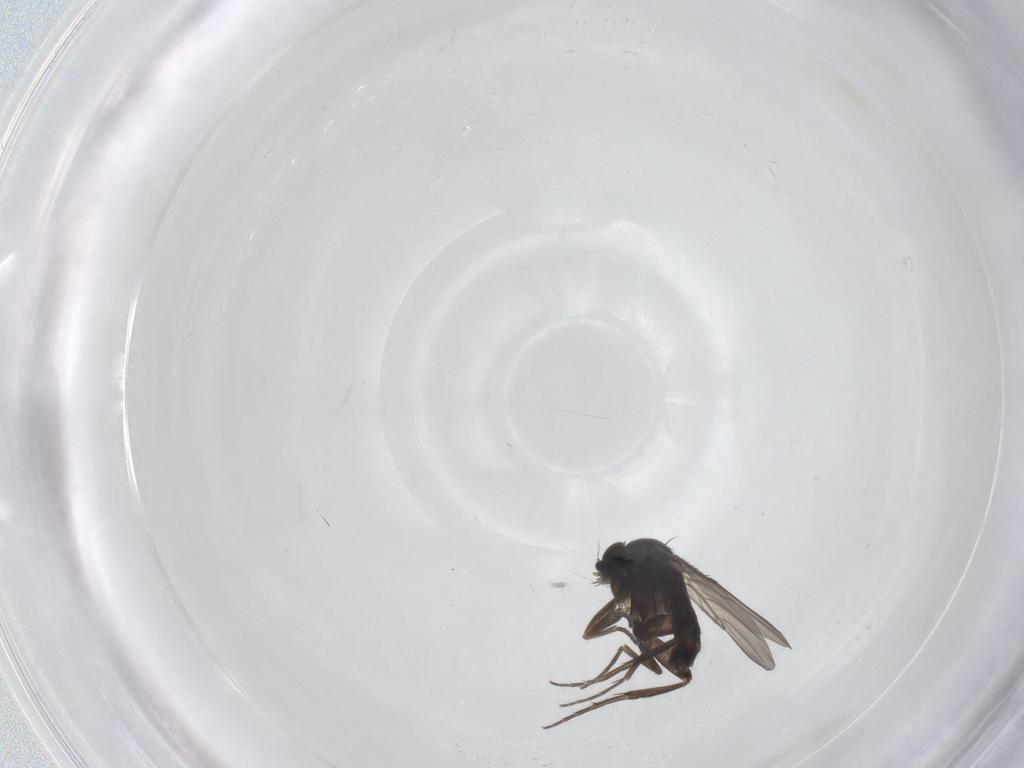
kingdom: Animalia
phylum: Arthropoda
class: Insecta
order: Diptera
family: Phoridae
